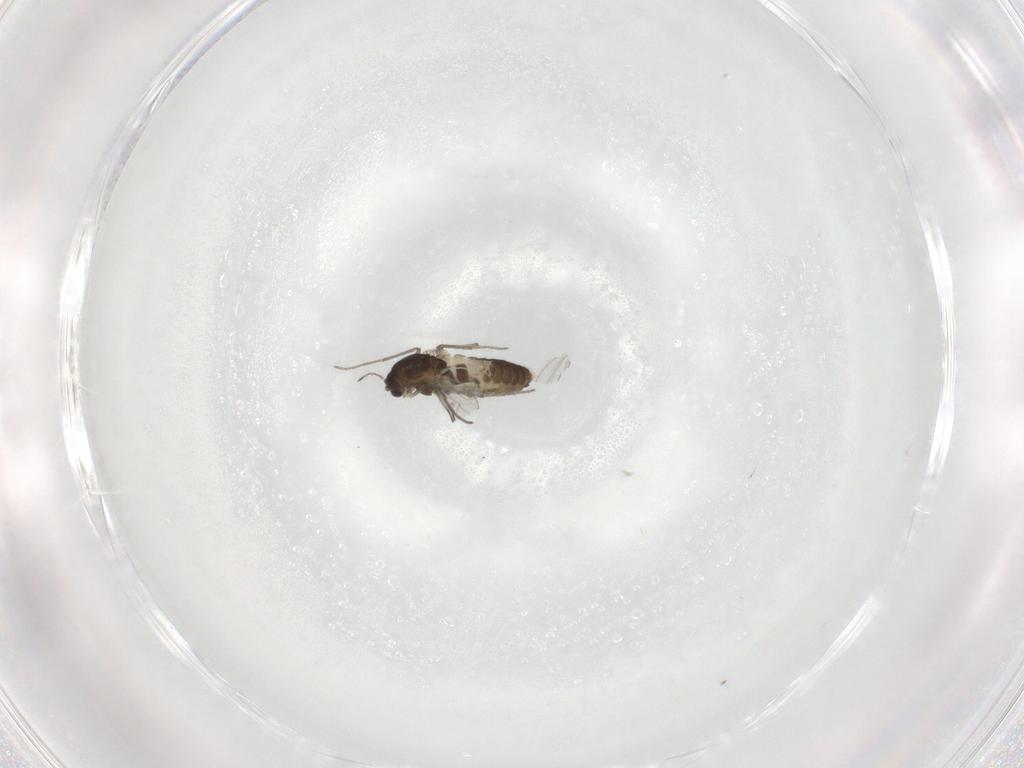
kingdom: Animalia
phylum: Arthropoda
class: Insecta
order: Diptera
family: Chironomidae
